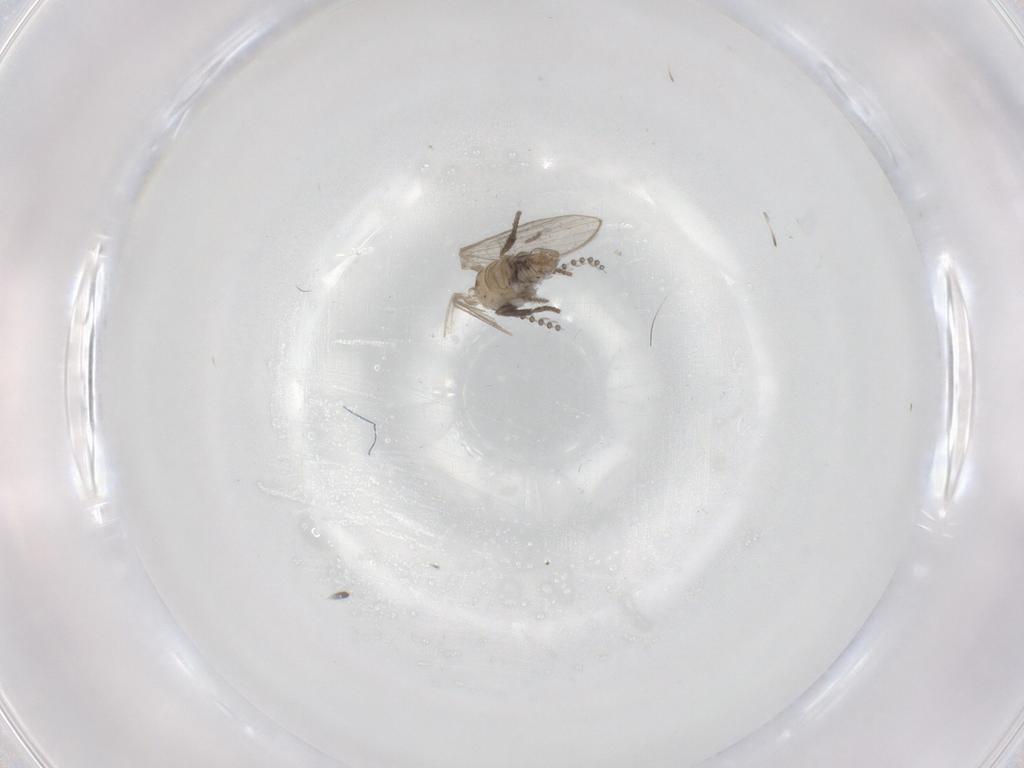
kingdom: Animalia
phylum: Arthropoda
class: Insecta
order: Diptera
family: Psychodidae
